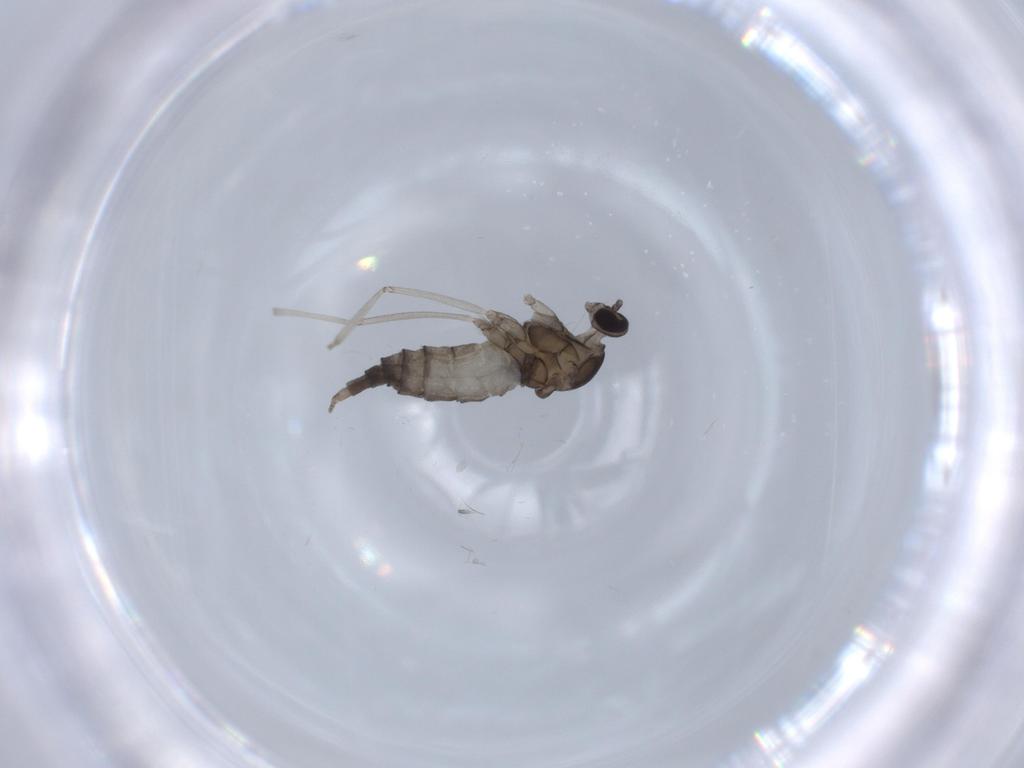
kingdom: Animalia
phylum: Arthropoda
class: Insecta
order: Diptera
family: Cecidomyiidae
